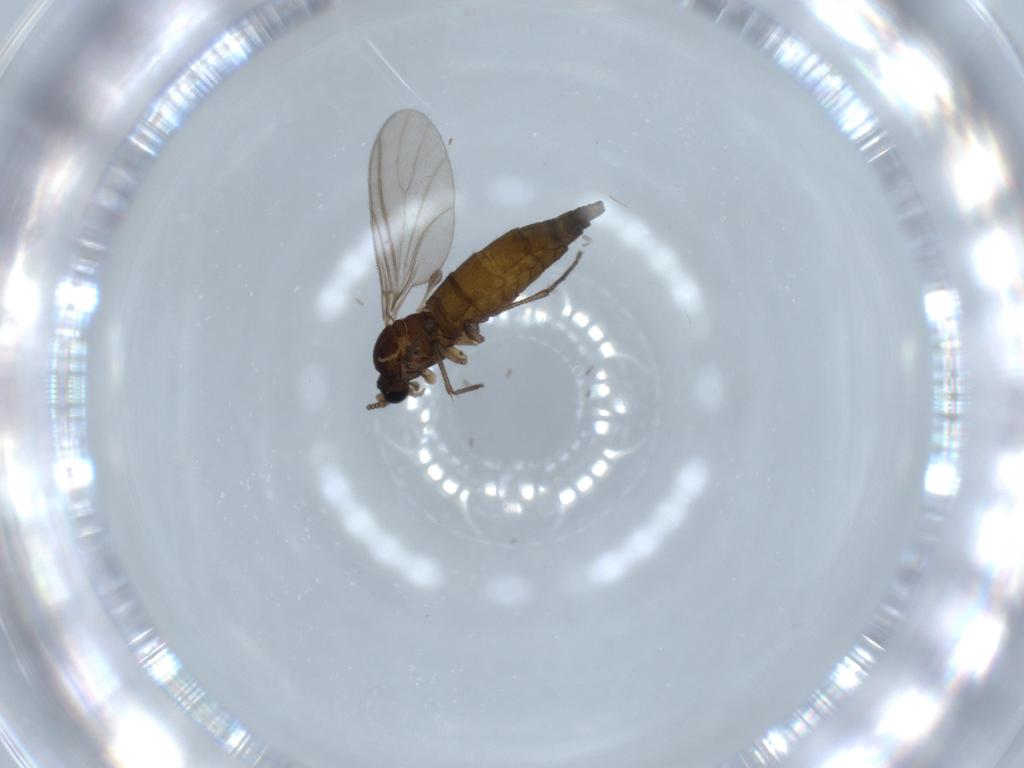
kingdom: Animalia
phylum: Arthropoda
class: Insecta
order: Diptera
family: Sciaridae
